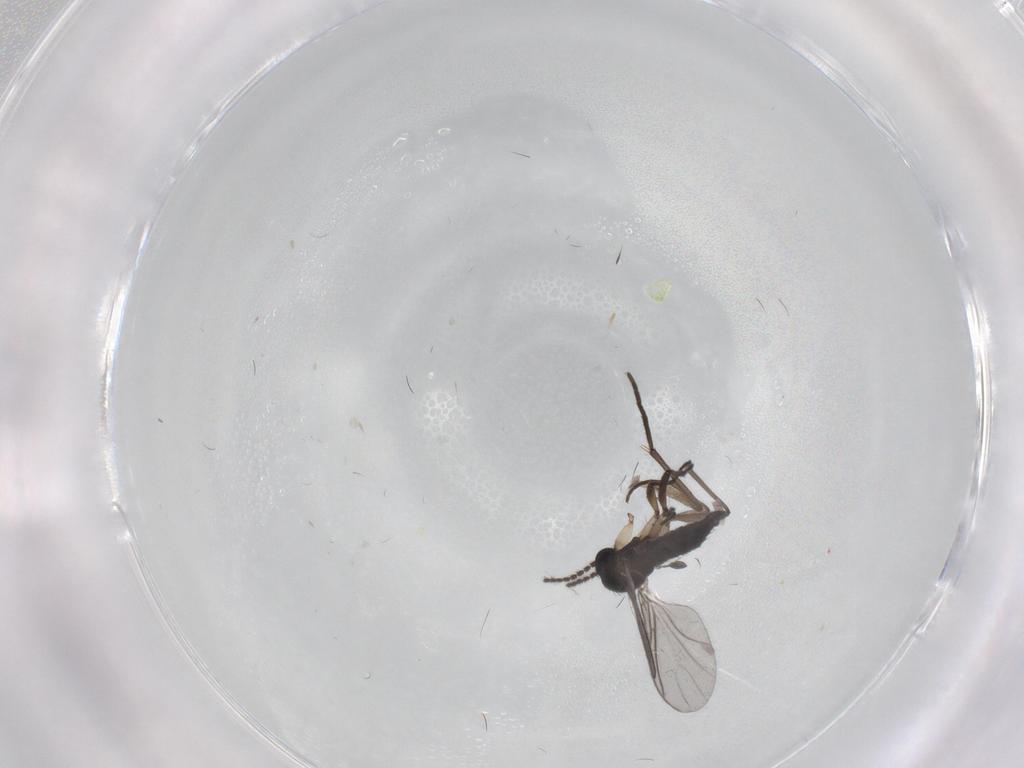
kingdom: Animalia
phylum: Arthropoda
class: Insecta
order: Diptera
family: Sciaridae
